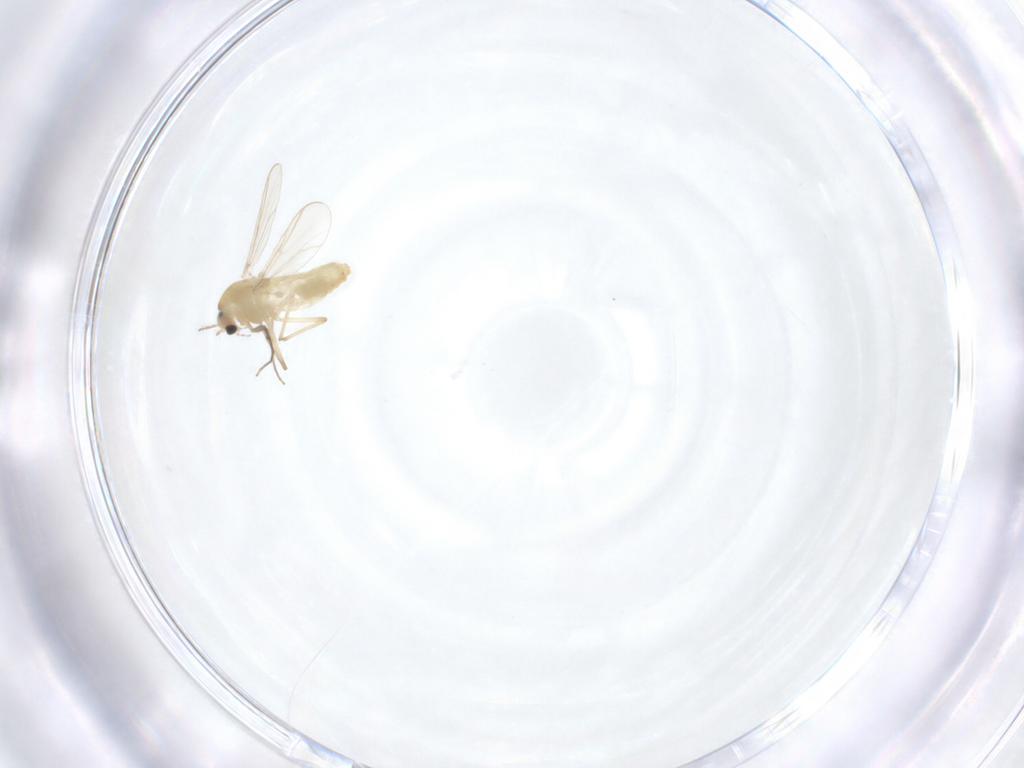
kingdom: Animalia
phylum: Arthropoda
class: Insecta
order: Diptera
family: Chironomidae
